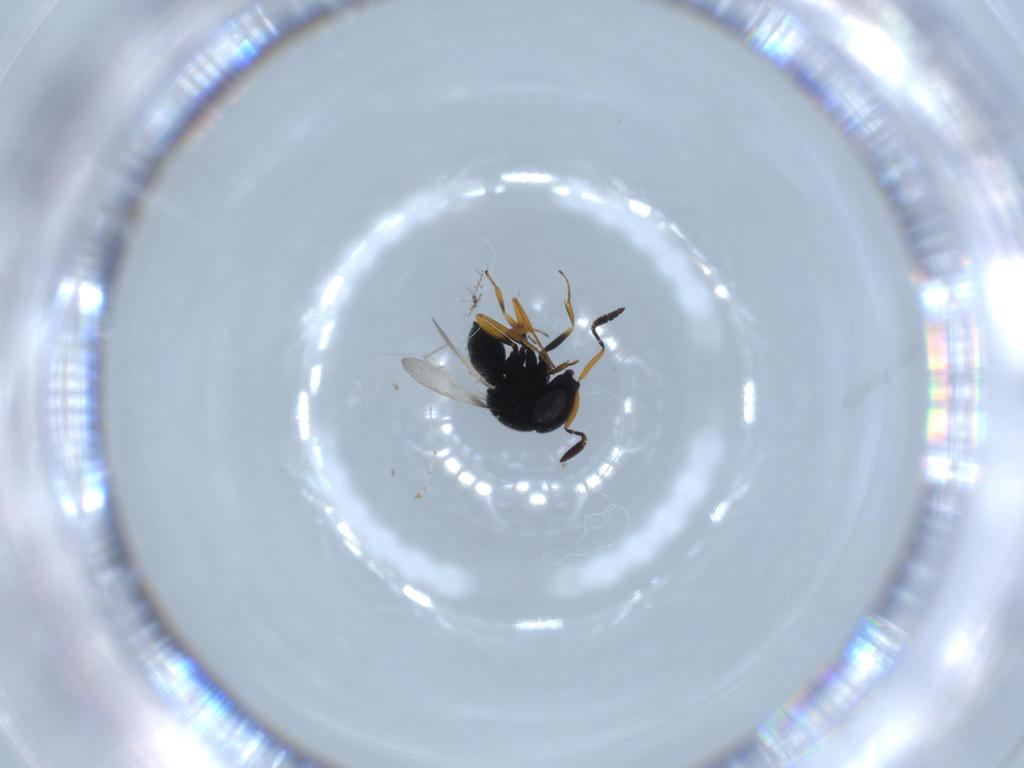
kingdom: Animalia
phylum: Arthropoda
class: Insecta
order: Hymenoptera
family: Scelionidae
